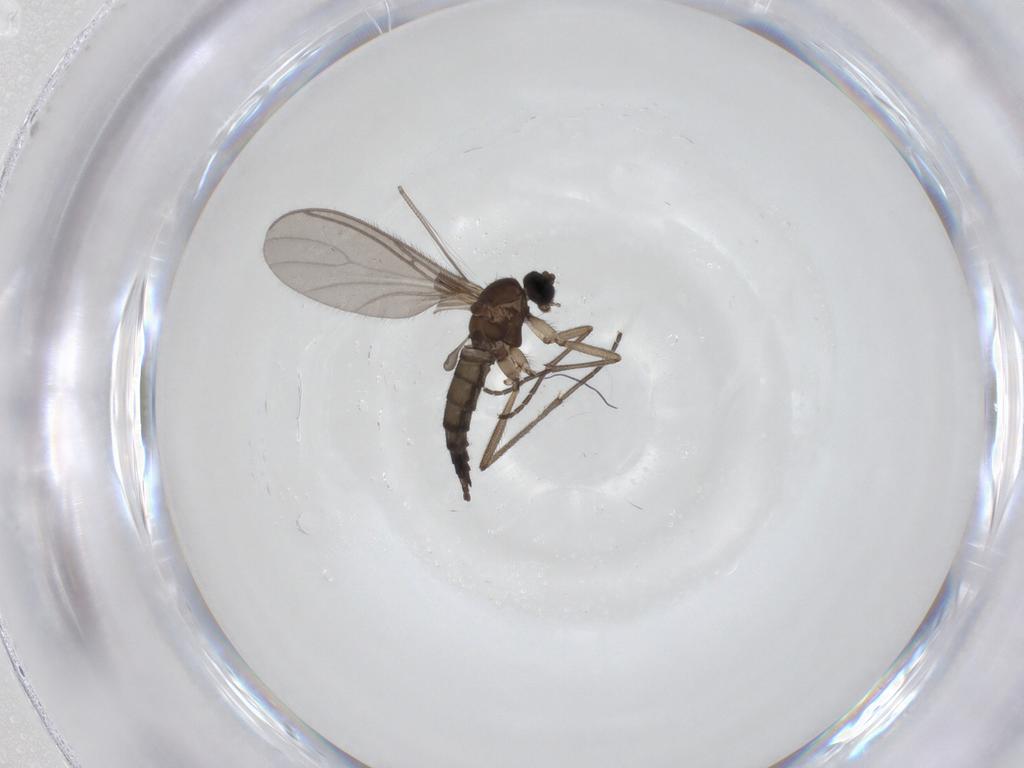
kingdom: Animalia
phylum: Arthropoda
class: Insecta
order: Diptera
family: Sciaridae
